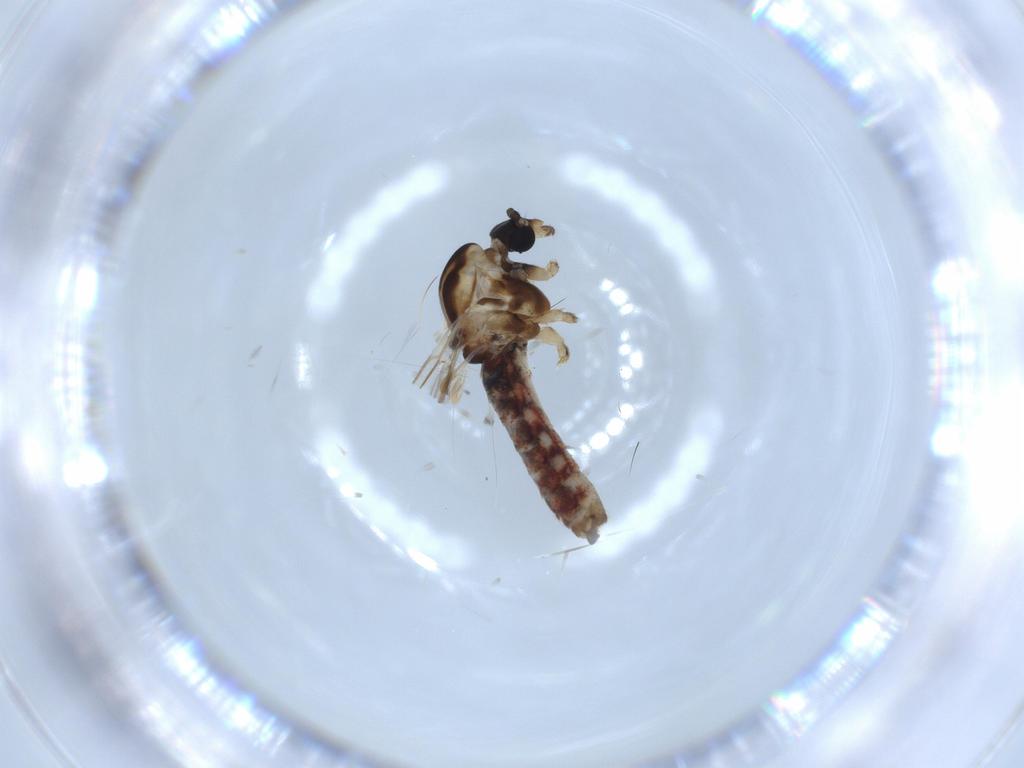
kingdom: Animalia
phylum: Arthropoda
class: Insecta
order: Diptera
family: Dixidae
